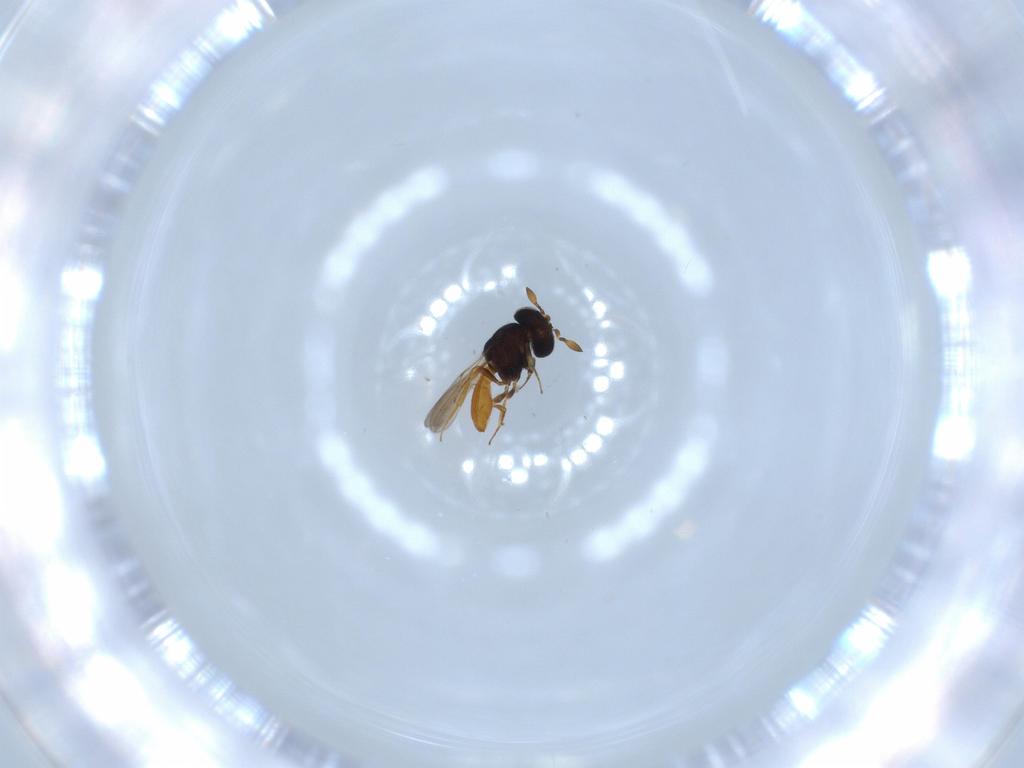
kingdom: Animalia
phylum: Arthropoda
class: Insecta
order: Hymenoptera
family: Scelionidae
